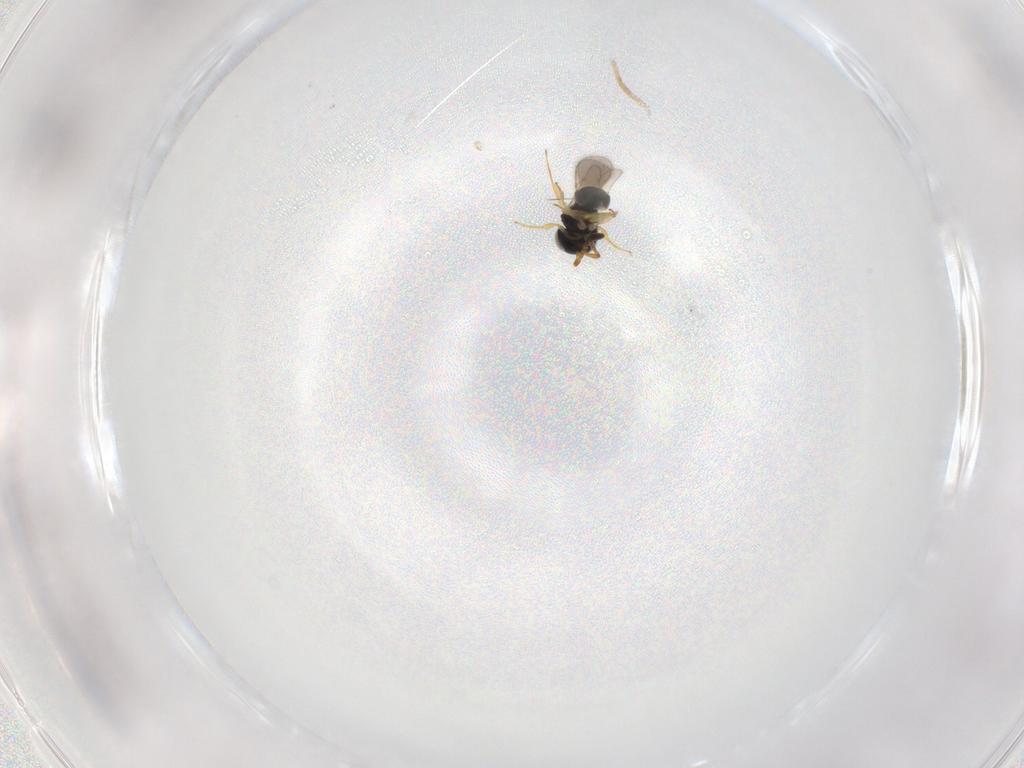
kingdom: Animalia
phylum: Arthropoda
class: Insecta
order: Hymenoptera
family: Scelionidae
